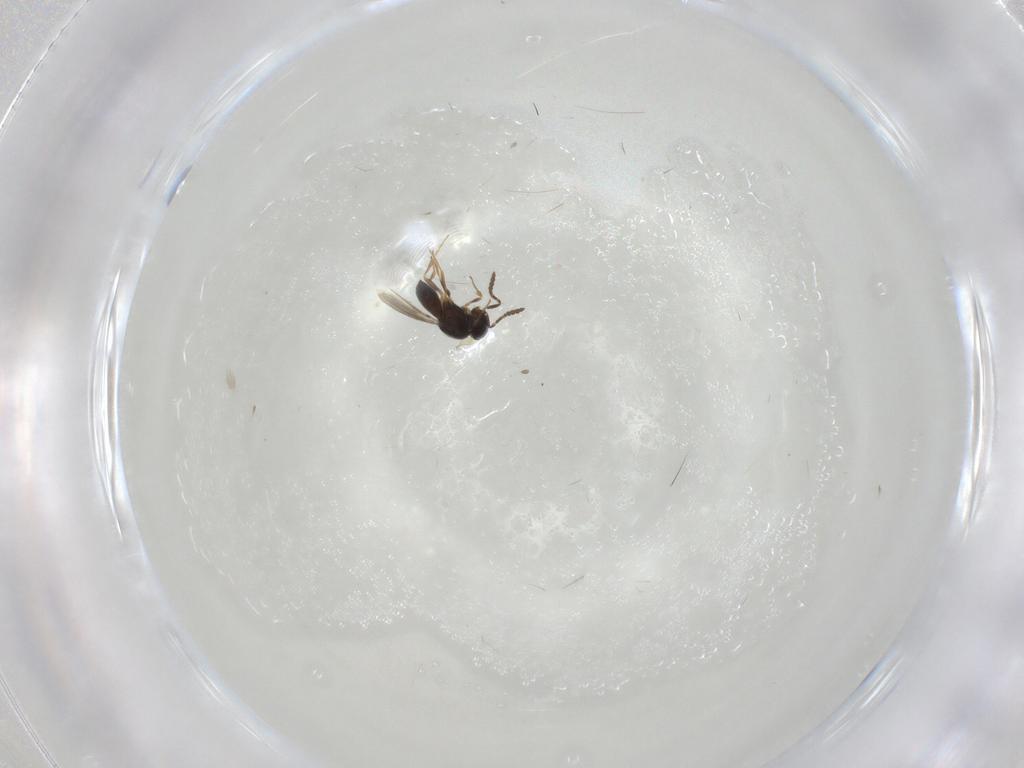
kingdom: Animalia
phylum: Arthropoda
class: Insecta
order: Hymenoptera
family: Scelionidae
